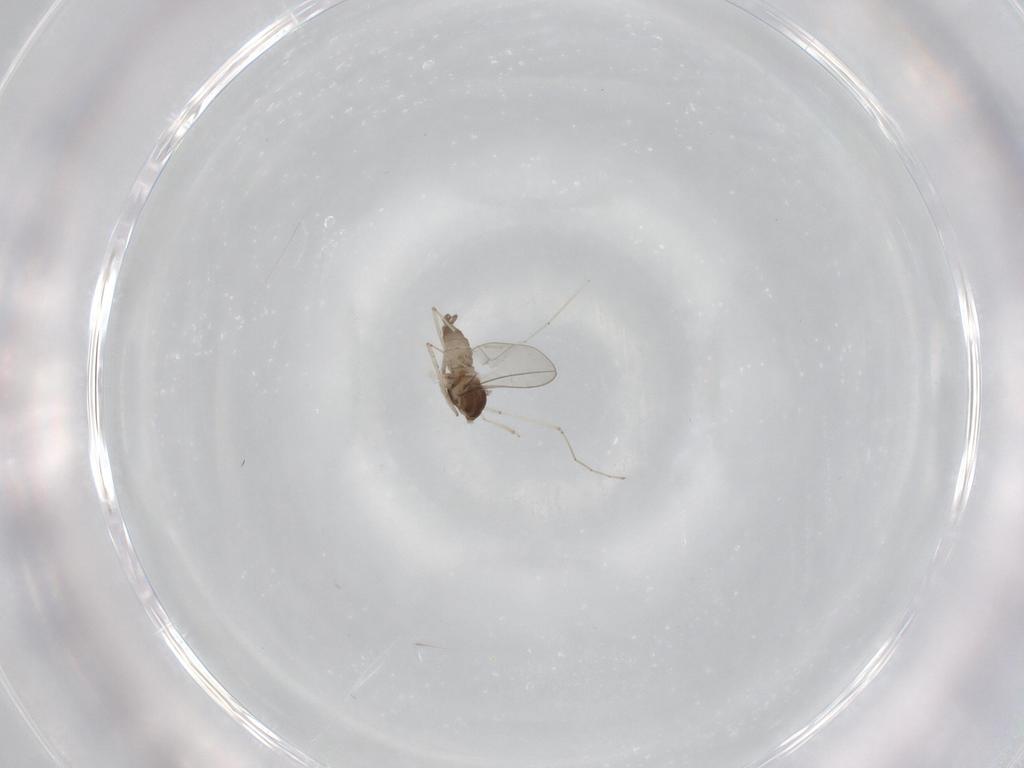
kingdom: Animalia
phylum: Arthropoda
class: Insecta
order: Diptera
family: Cecidomyiidae
